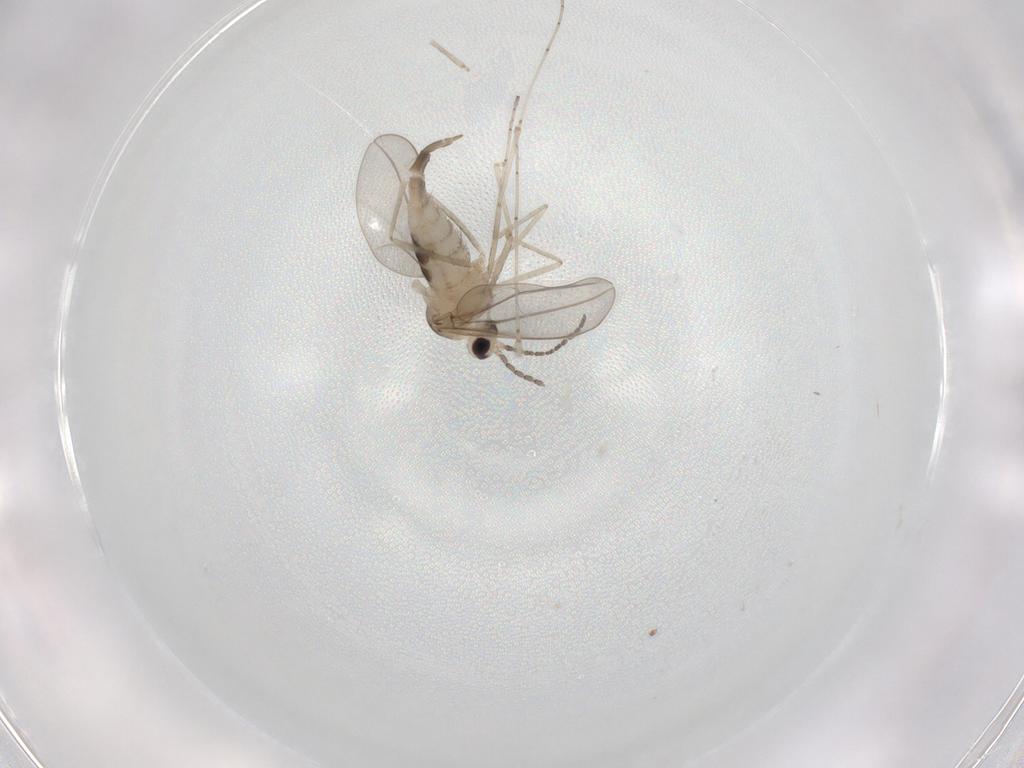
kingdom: Animalia
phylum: Arthropoda
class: Insecta
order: Diptera
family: Cecidomyiidae
